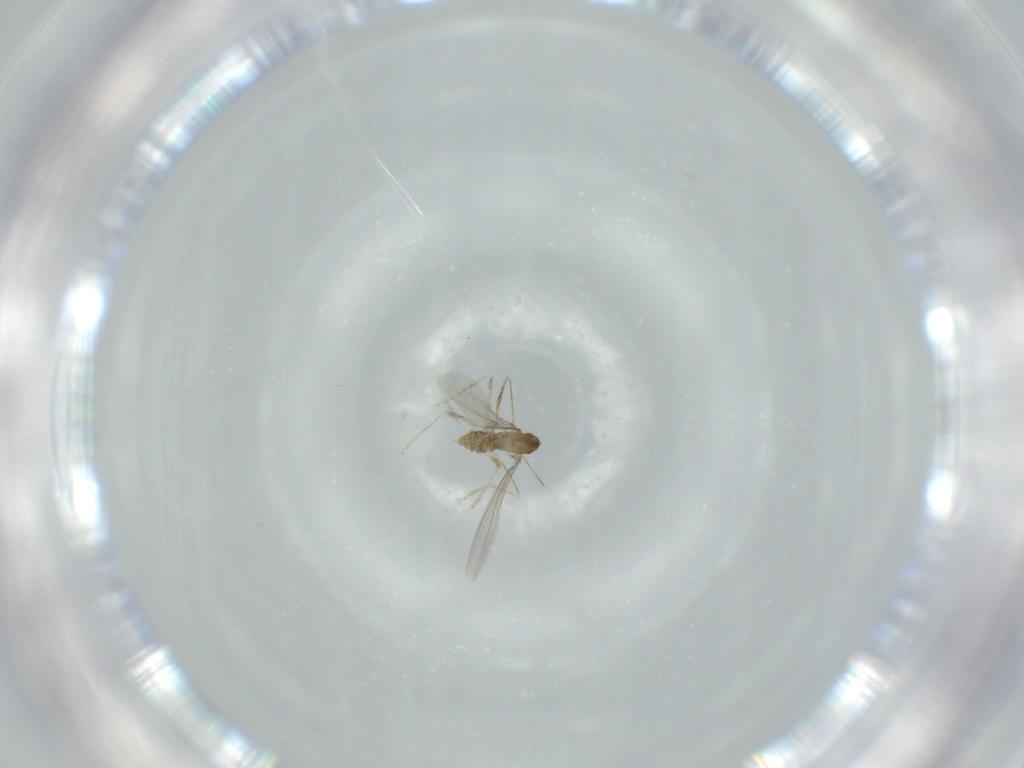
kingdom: Animalia
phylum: Arthropoda
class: Insecta
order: Diptera
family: Cecidomyiidae
